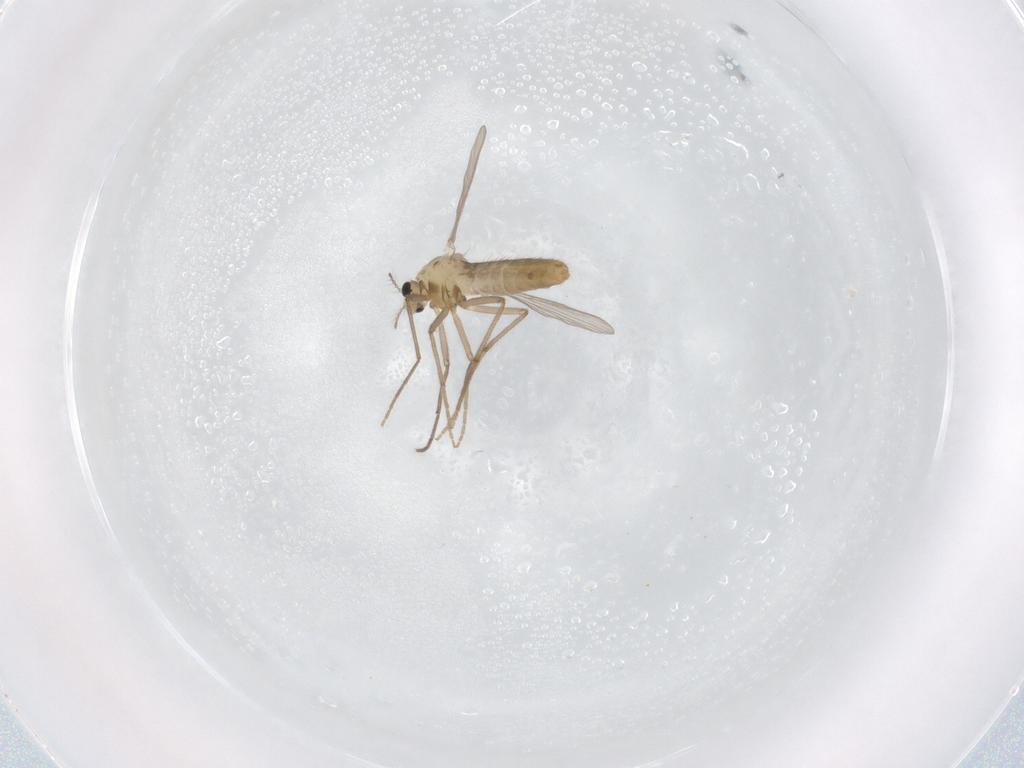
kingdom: Animalia
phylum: Arthropoda
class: Insecta
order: Diptera
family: Chironomidae
